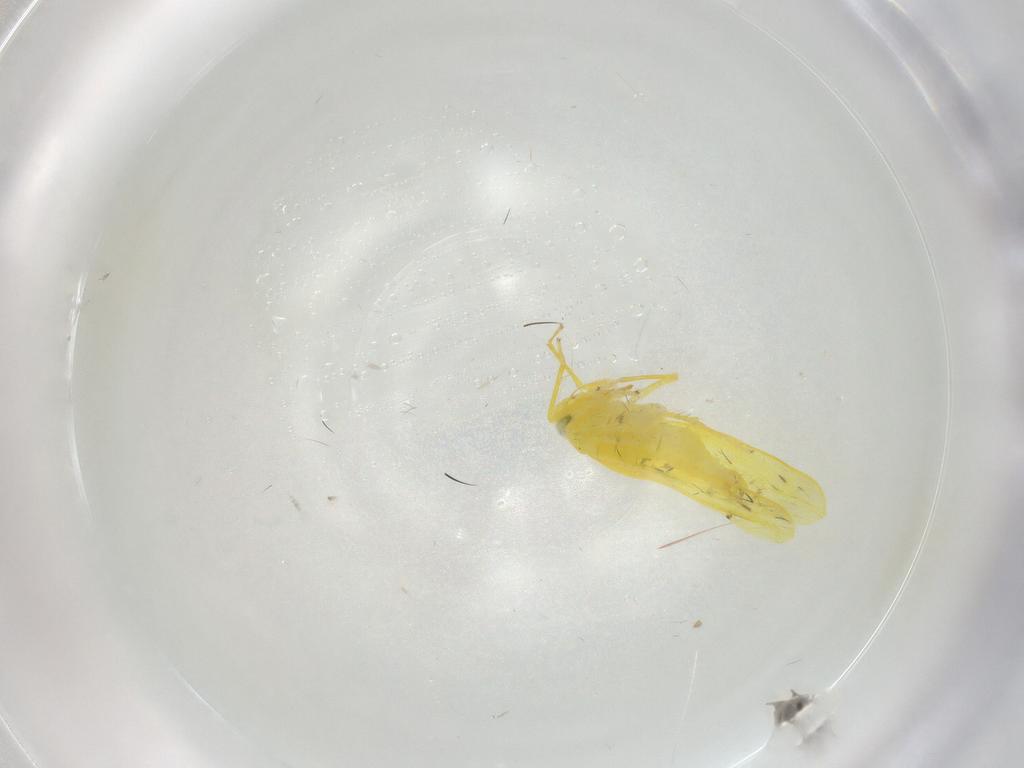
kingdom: Animalia
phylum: Arthropoda
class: Insecta
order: Hemiptera
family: Cicadellidae
